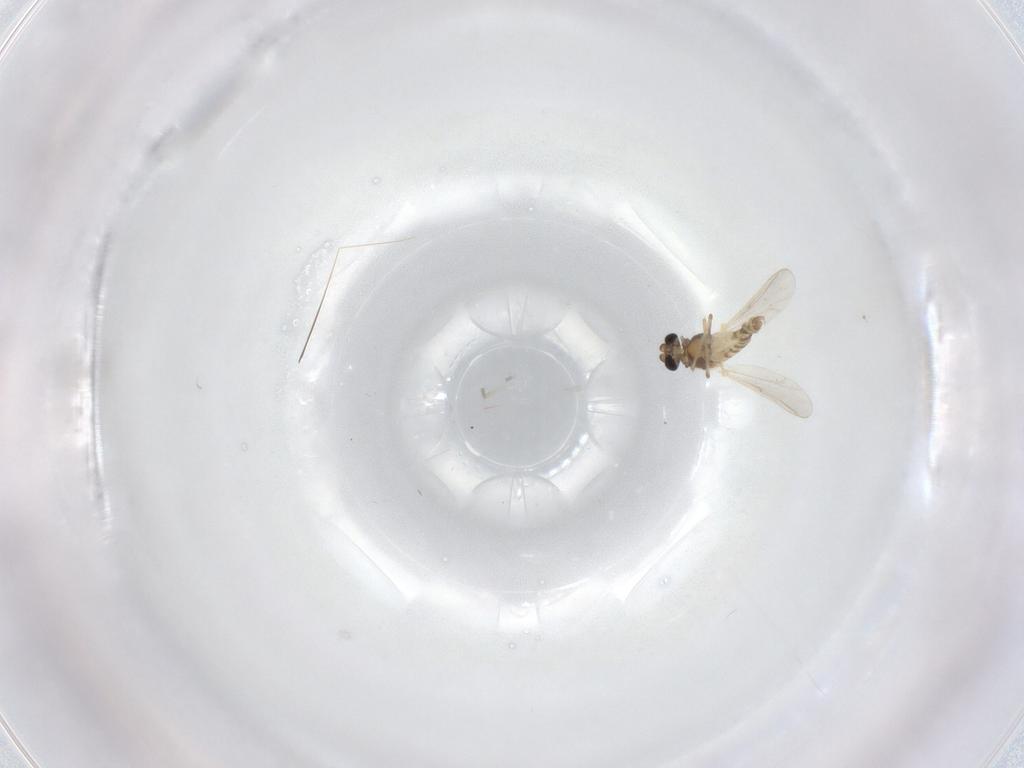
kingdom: Animalia
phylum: Arthropoda
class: Insecta
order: Diptera
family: Chironomidae
